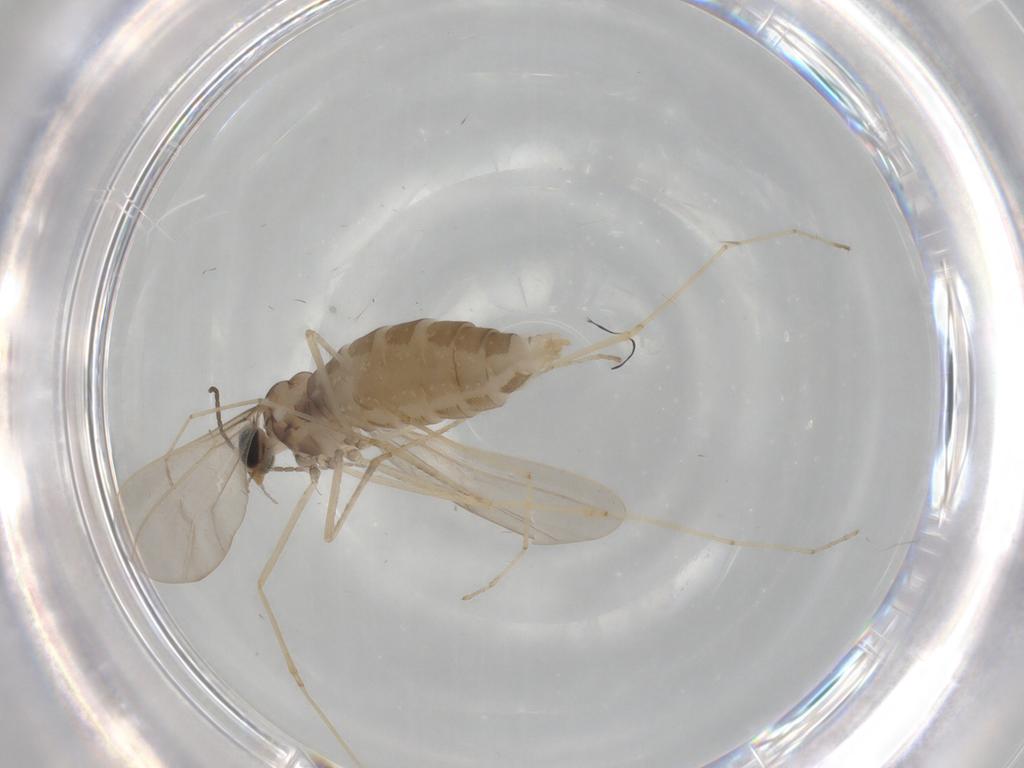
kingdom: Animalia
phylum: Arthropoda
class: Insecta
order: Diptera
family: Cecidomyiidae
